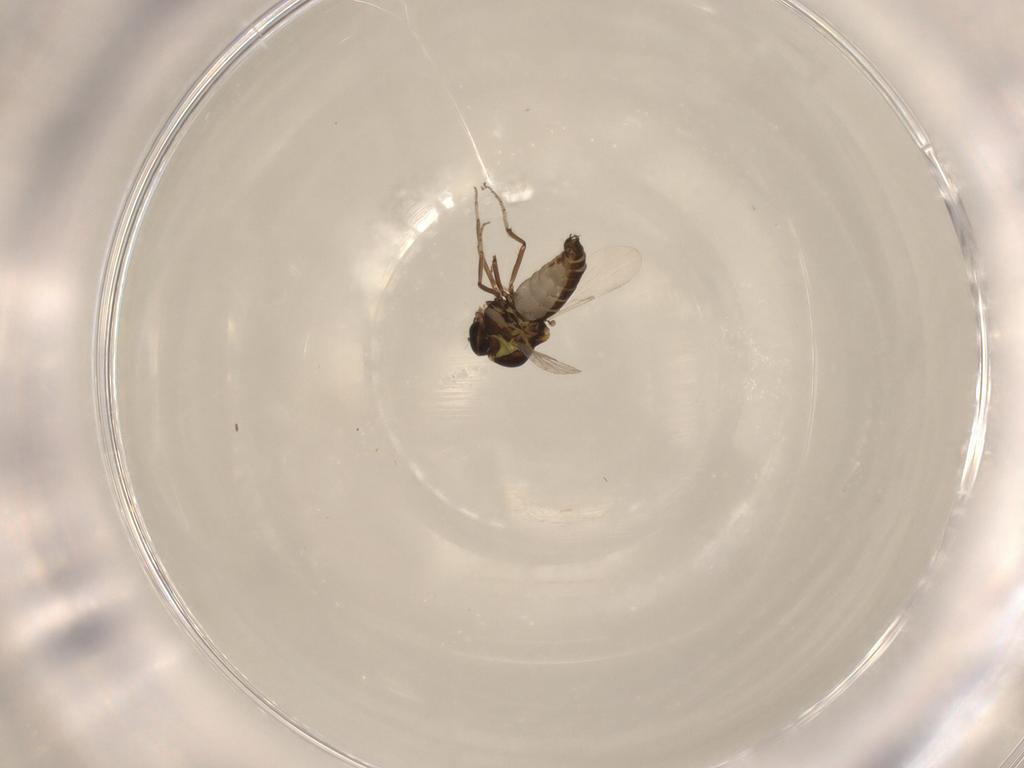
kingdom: Animalia
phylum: Arthropoda
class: Insecta
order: Diptera
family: Ceratopogonidae
